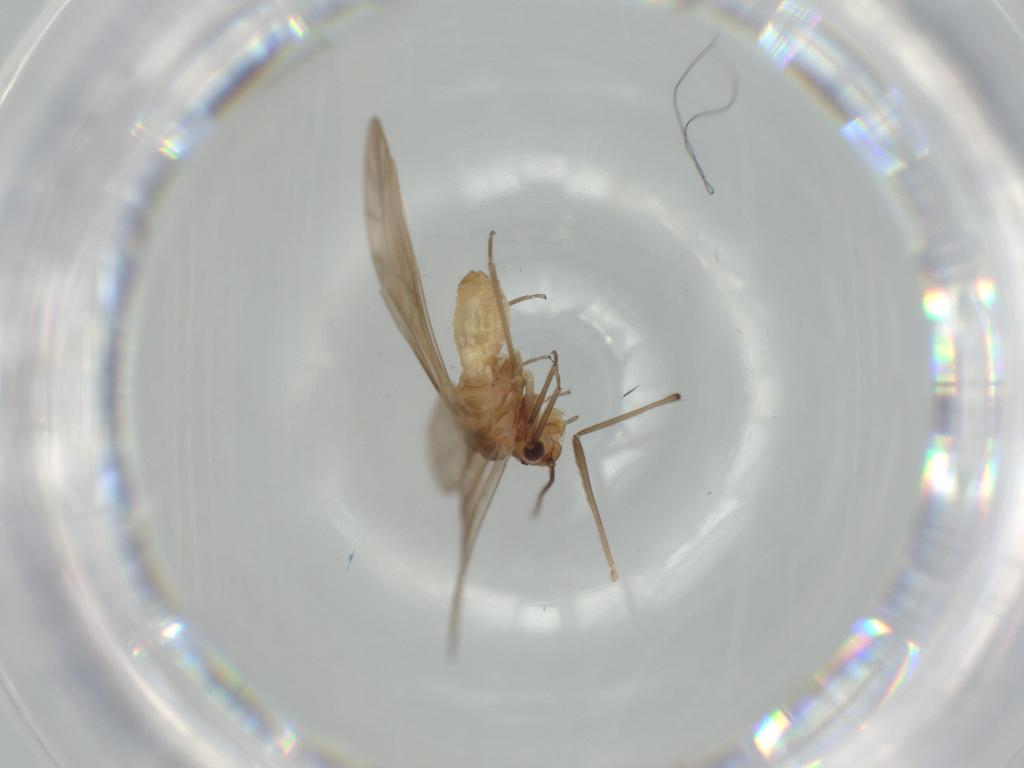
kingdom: Animalia
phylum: Arthropoda
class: Insecta
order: Psocodea
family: Caeciliusidae
